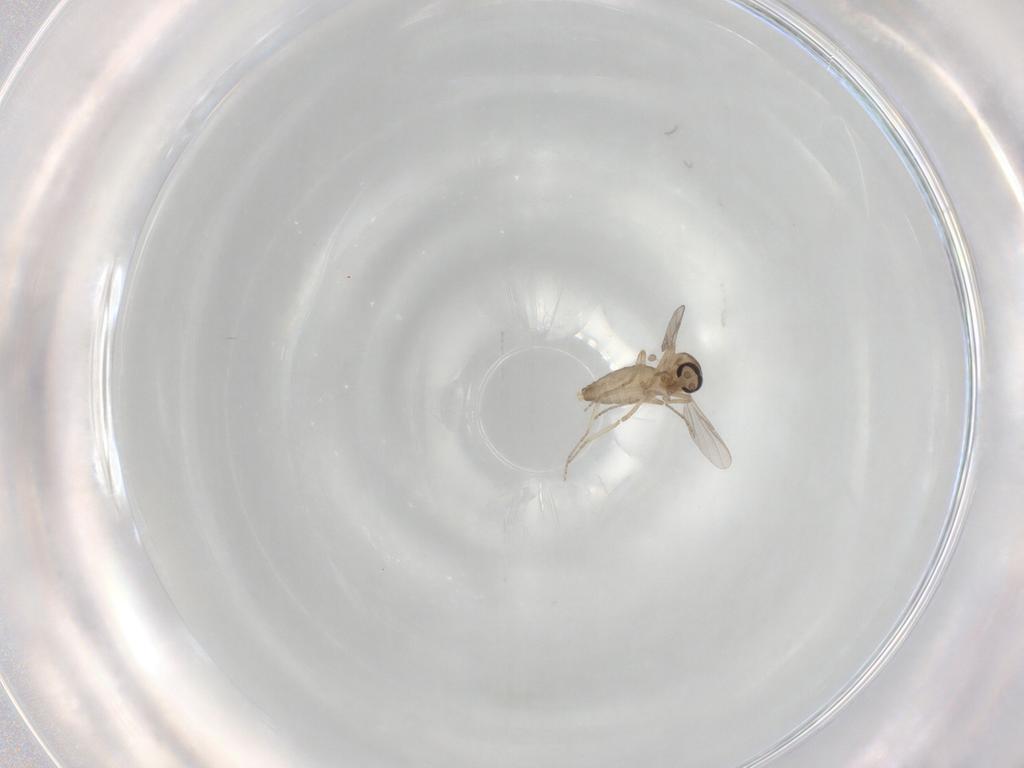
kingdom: Animalia
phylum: Arthropoda
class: Insecta
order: Diptera
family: Ceratopogonidae
